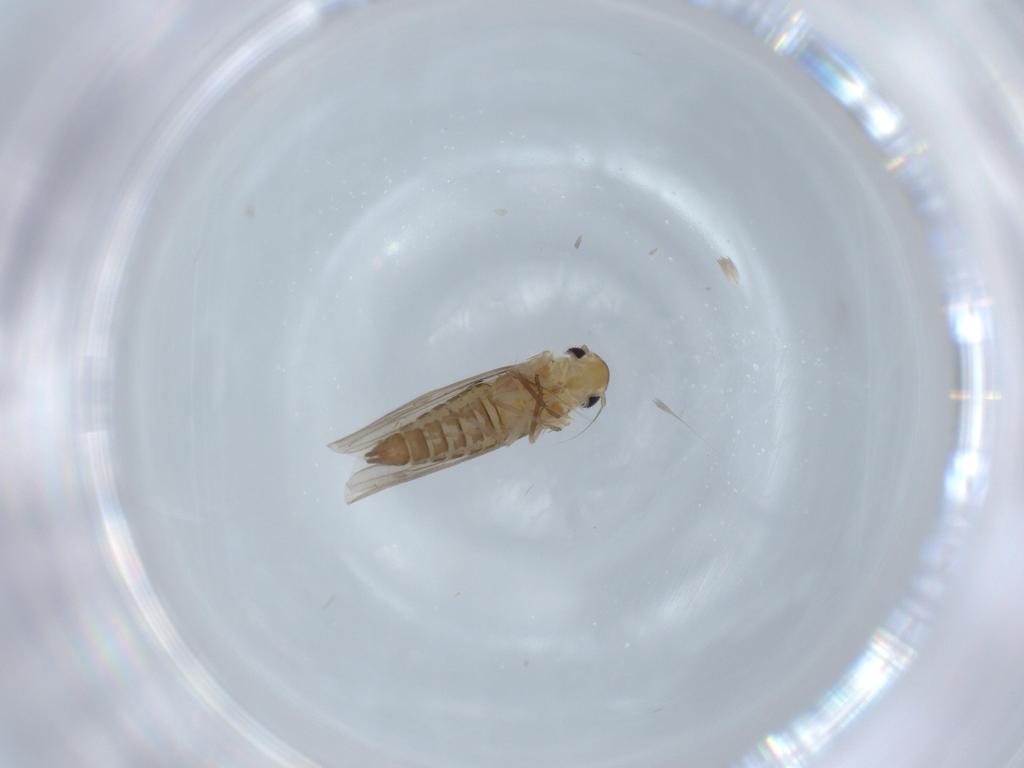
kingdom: Animalia
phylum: Arthropoda
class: Insecta
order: Hemiptera
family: Cicadellidae
